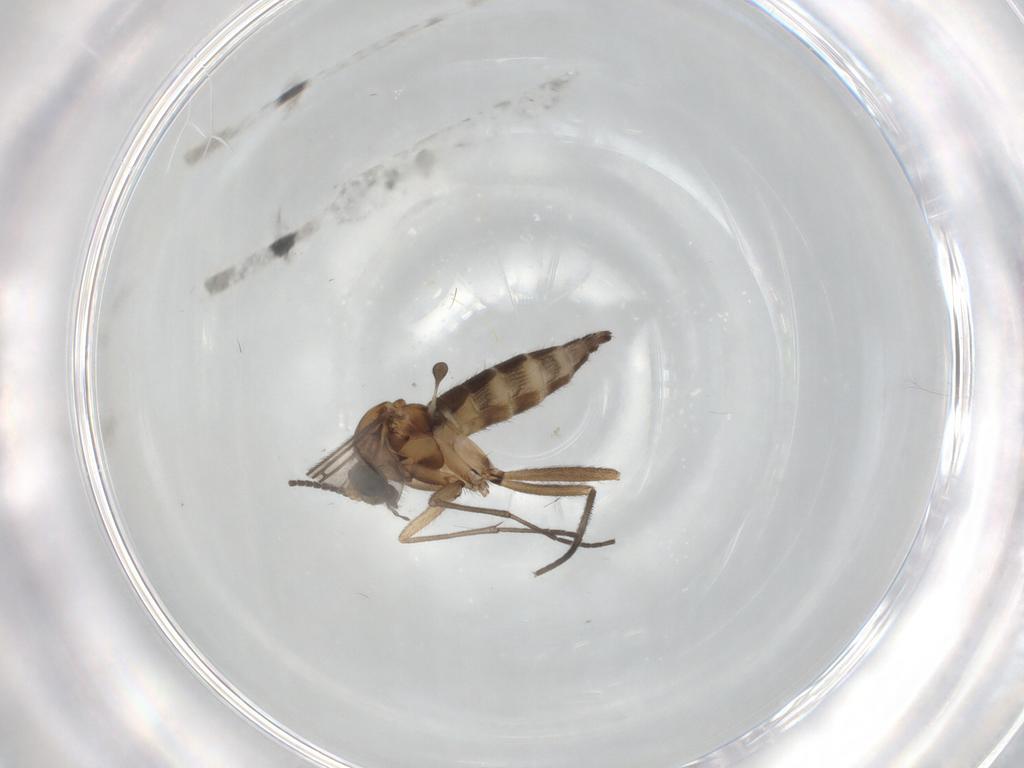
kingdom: Animalia
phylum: Arthropoda
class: Insecta
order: Diptera
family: Sciaridae
